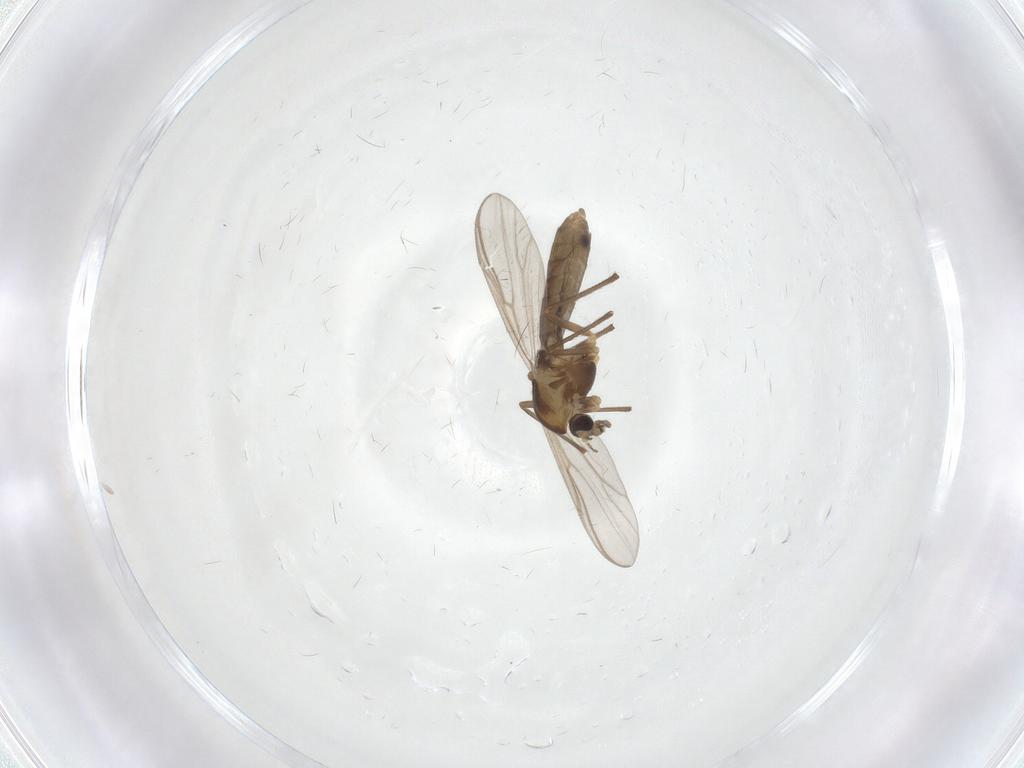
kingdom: Animalia
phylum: Arthropoda
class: Insecta
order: Diptera
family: Chironomidae
